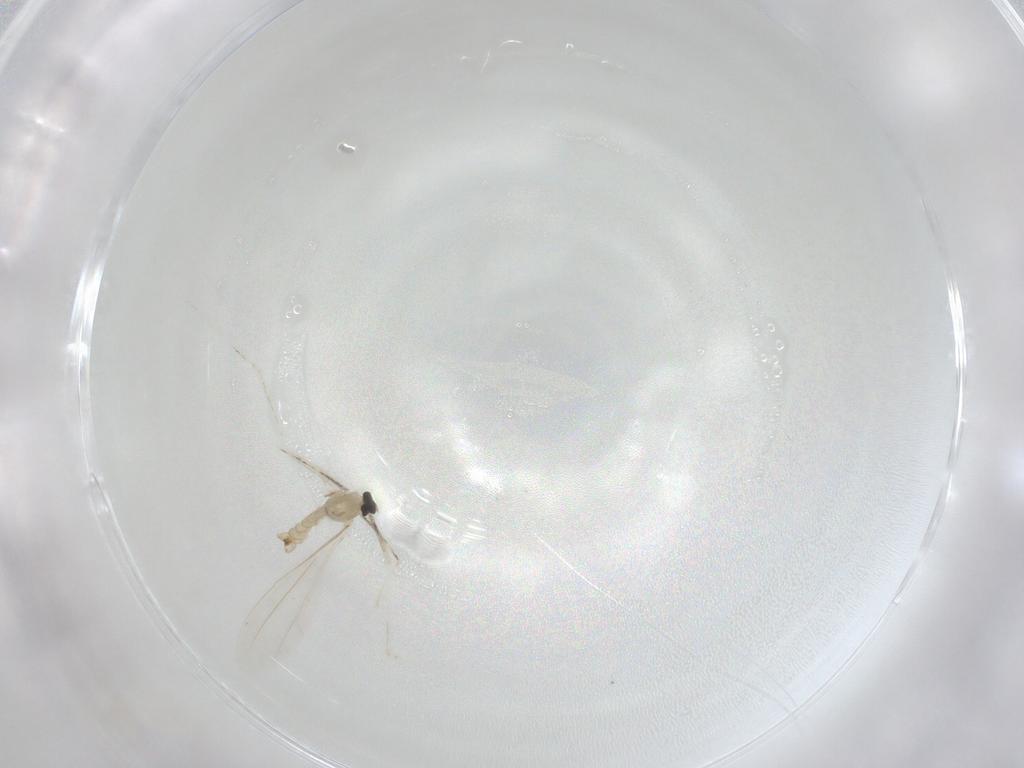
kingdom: Animalia
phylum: Arthropoda
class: Insecta
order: Diptera
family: Cecidomyiidae
